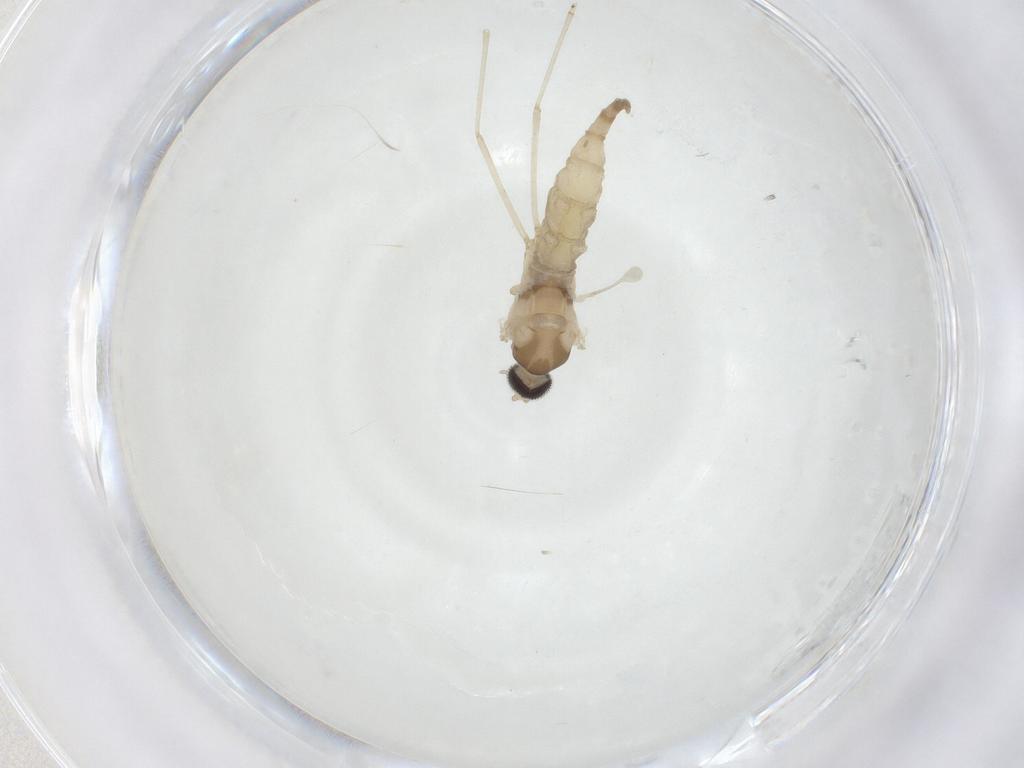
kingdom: Animalia
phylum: Arthropoda
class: Insecta
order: Diptera
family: Cecidomyiidae
